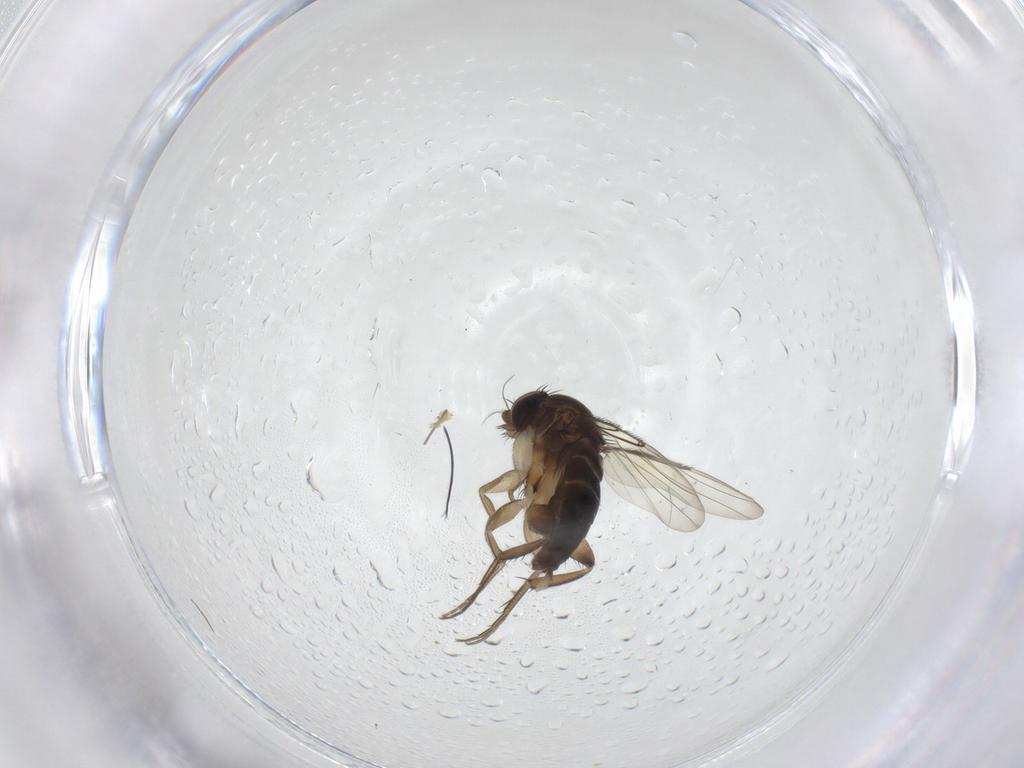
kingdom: Animalia
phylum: Arthropoda
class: Insecta
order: Diptera
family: Phoridae
